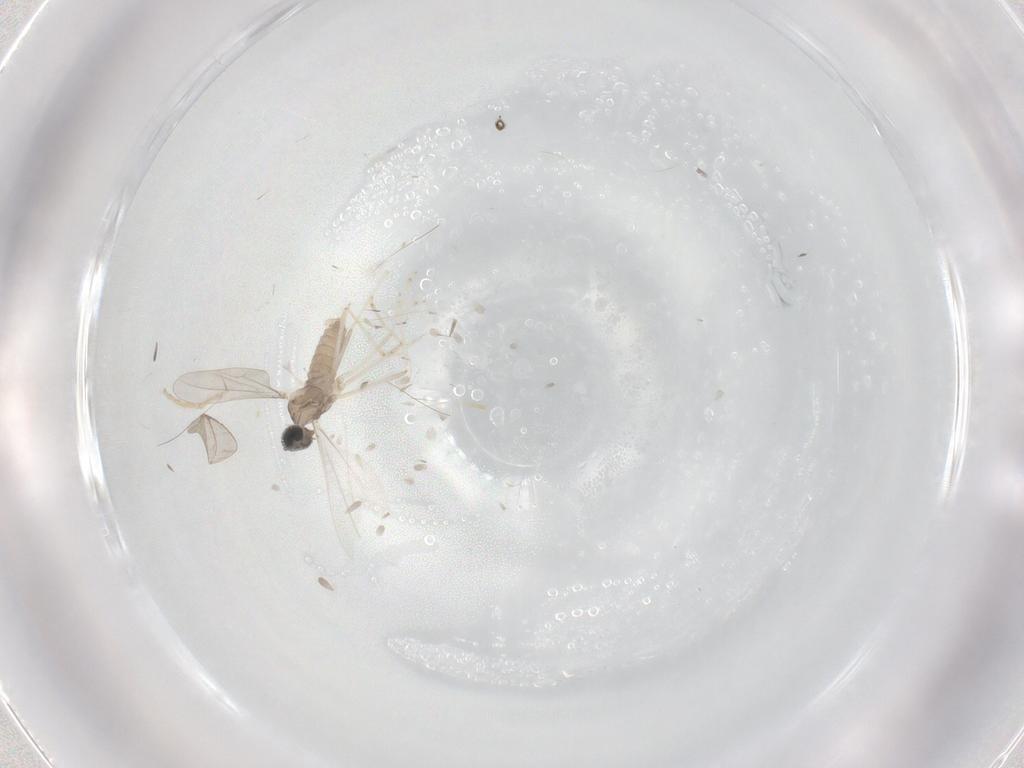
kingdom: Animalia
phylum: Arthropoda
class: Insecta
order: Diptera
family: Cecidomyiidae
